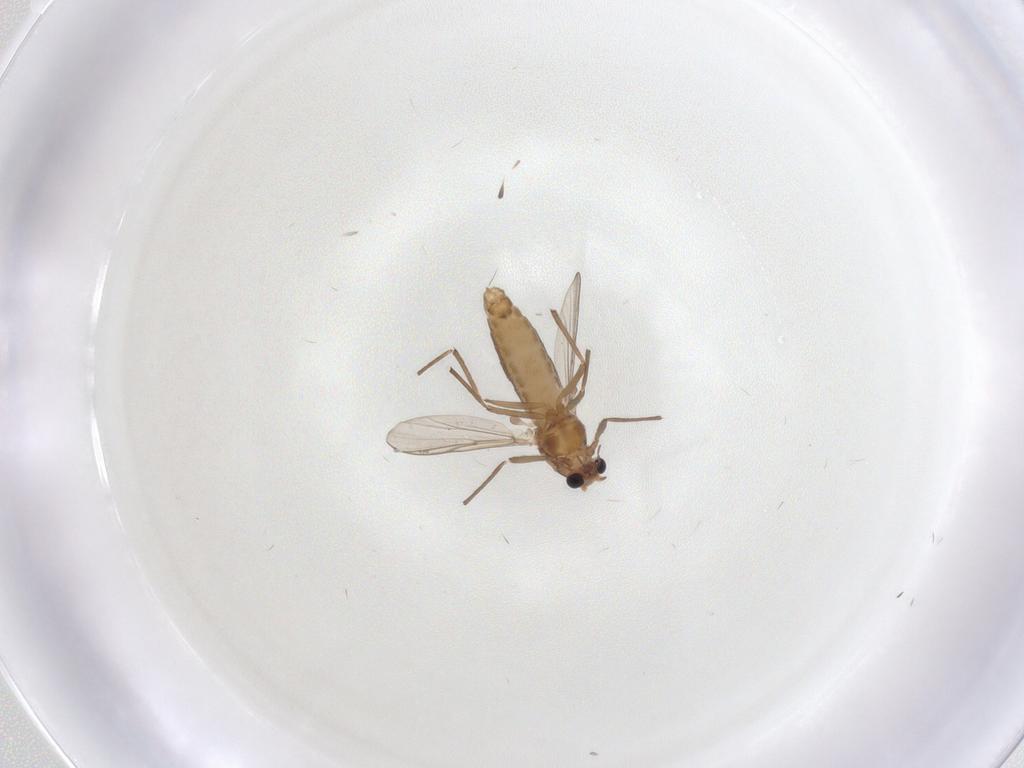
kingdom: Animalia
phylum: Arthropoda
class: Insecta
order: Diptera
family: Chironomidae
